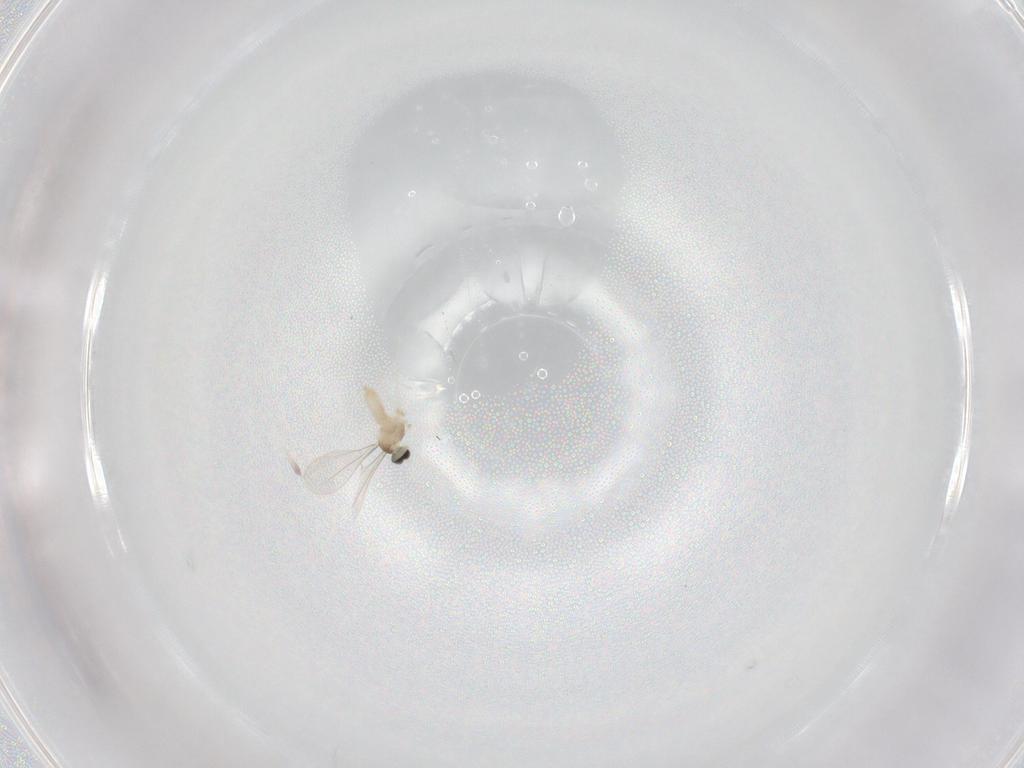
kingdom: Animalia
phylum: Arthropoda
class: Insecta
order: Diptera
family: Cecidomyiidae
